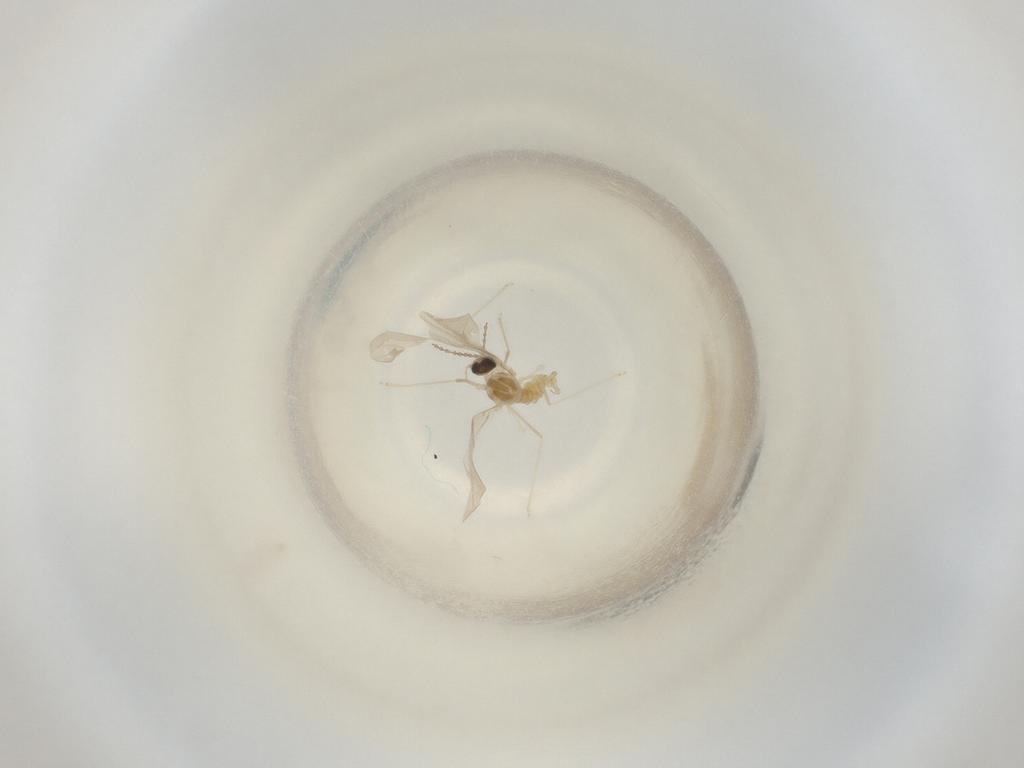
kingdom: Animalia
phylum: Arthropoda
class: Insecta
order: Diptera
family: Cecidomyiidae
